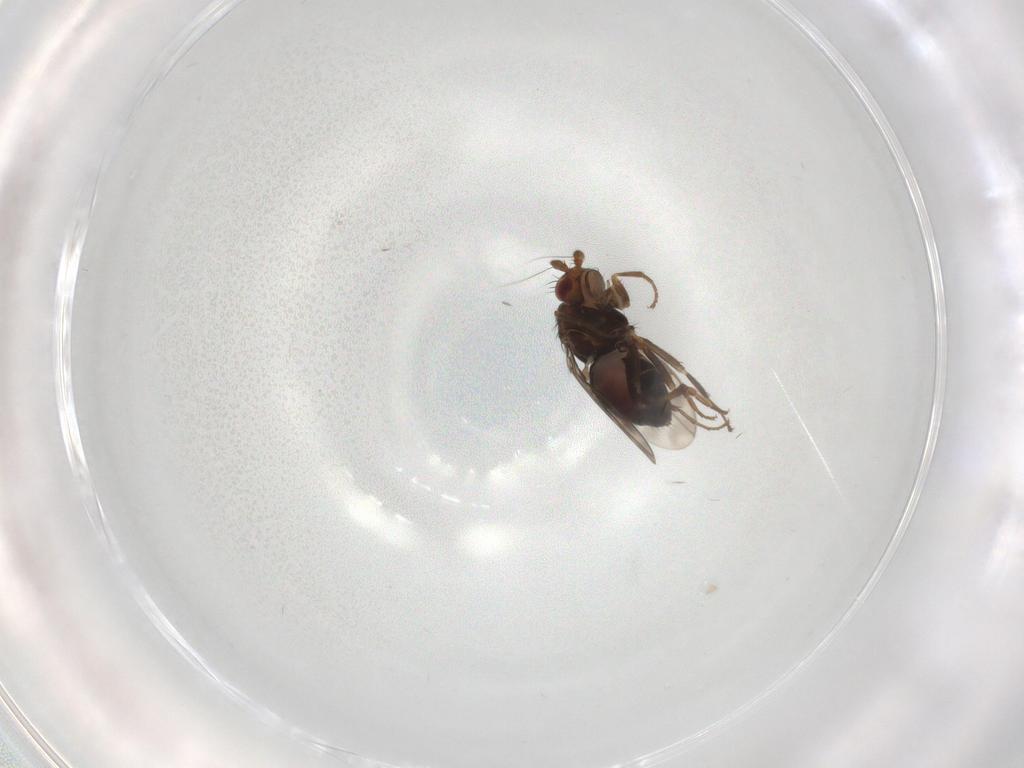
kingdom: Animalia
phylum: Arthropoda
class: Insecta
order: Diptera
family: Sphaeroceridae
